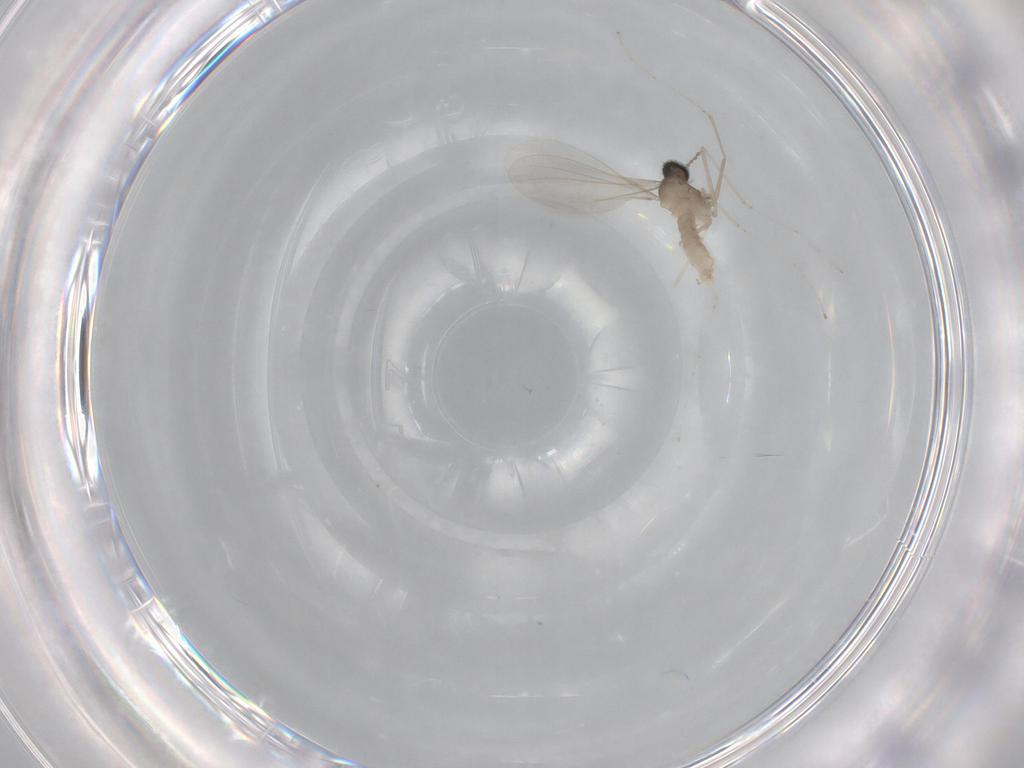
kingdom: Animalia
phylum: Arthropoda
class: Insecta
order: Diptera
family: Cecidomyiidae
